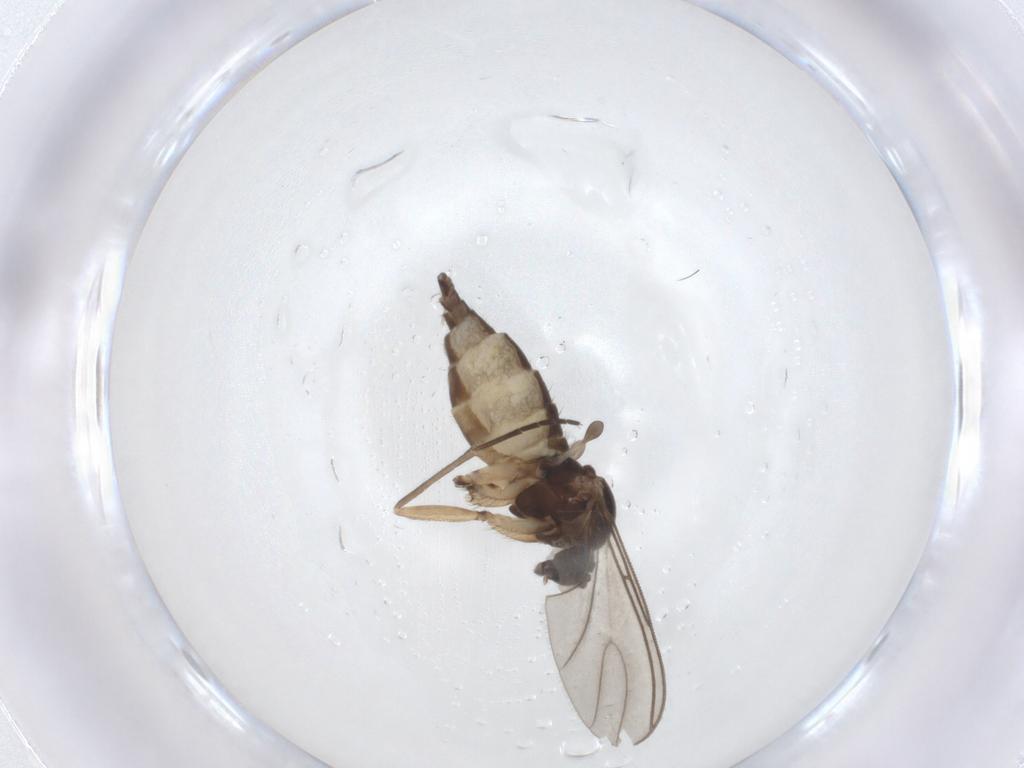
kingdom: Animalia
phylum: Arthropoda
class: Insecta
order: Diptera
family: Sciaridae
